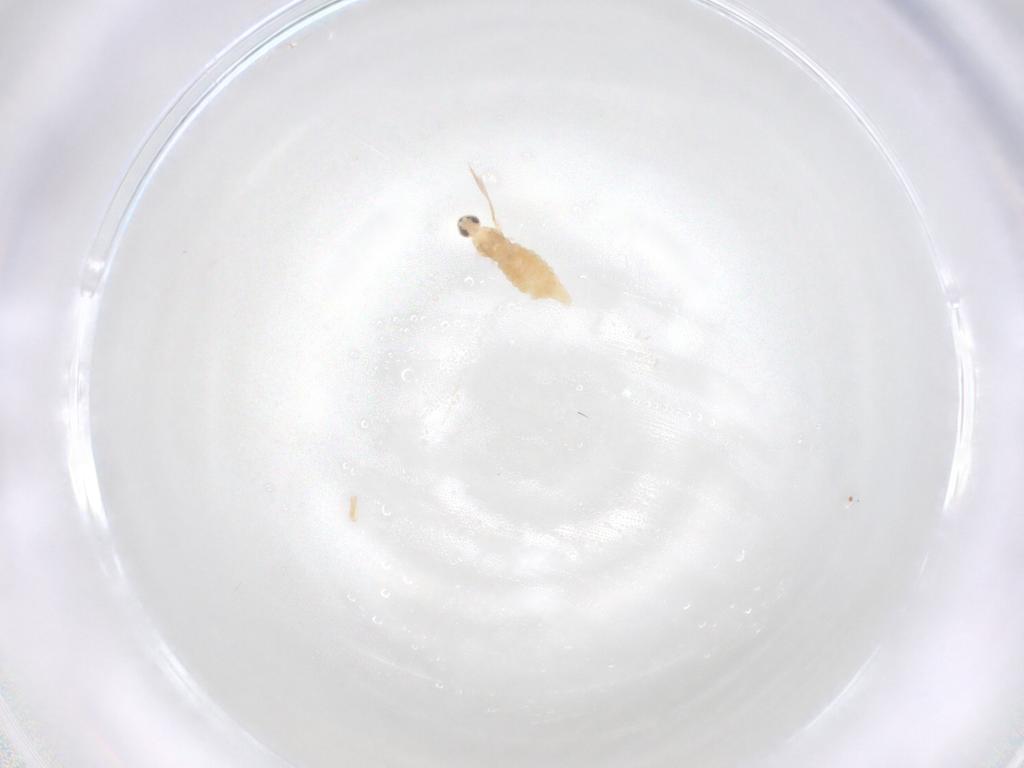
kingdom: Animalia
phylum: Arthropoda
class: Insecta
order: Diptera
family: Cecidomyiidae
